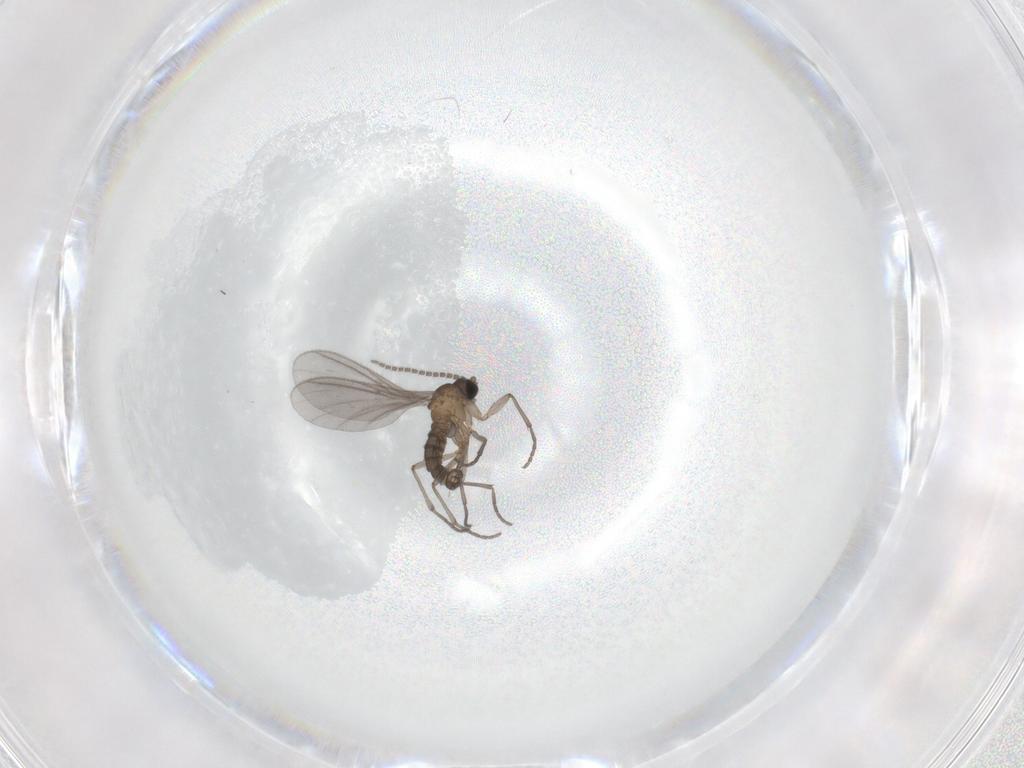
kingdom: Animalia
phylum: Arthropoda
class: Insecta
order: Diptera
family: Sciaridae
